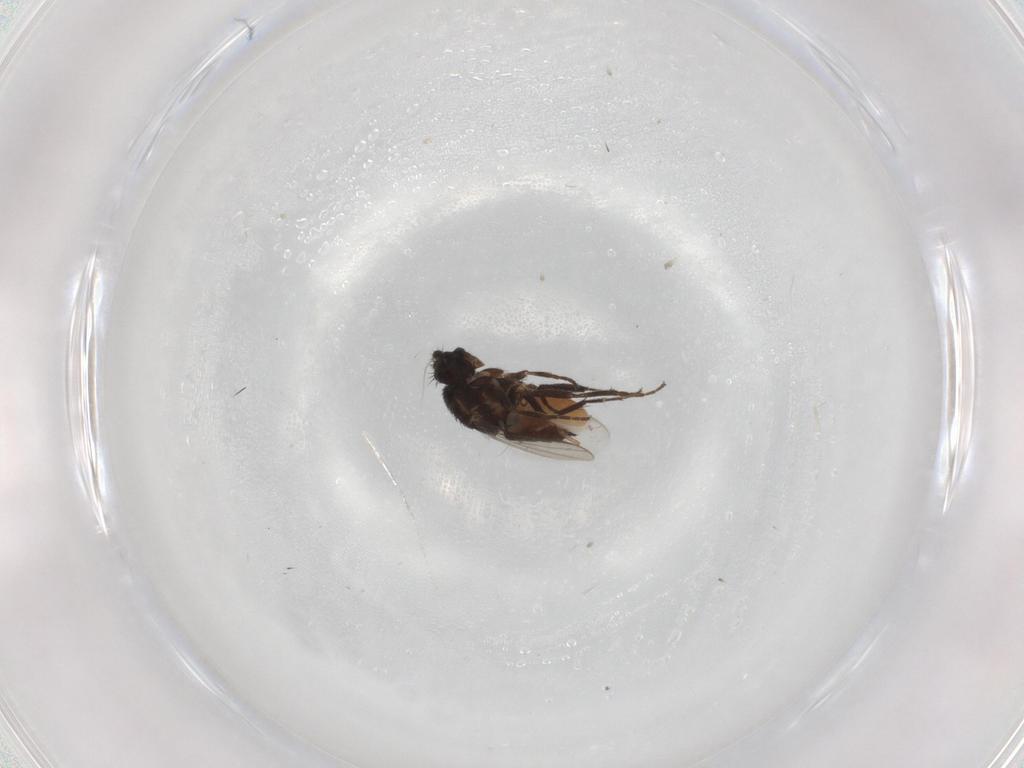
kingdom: Animalia
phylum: Arthropoda
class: Insecta
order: Diptera
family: Sphaeroceridae
